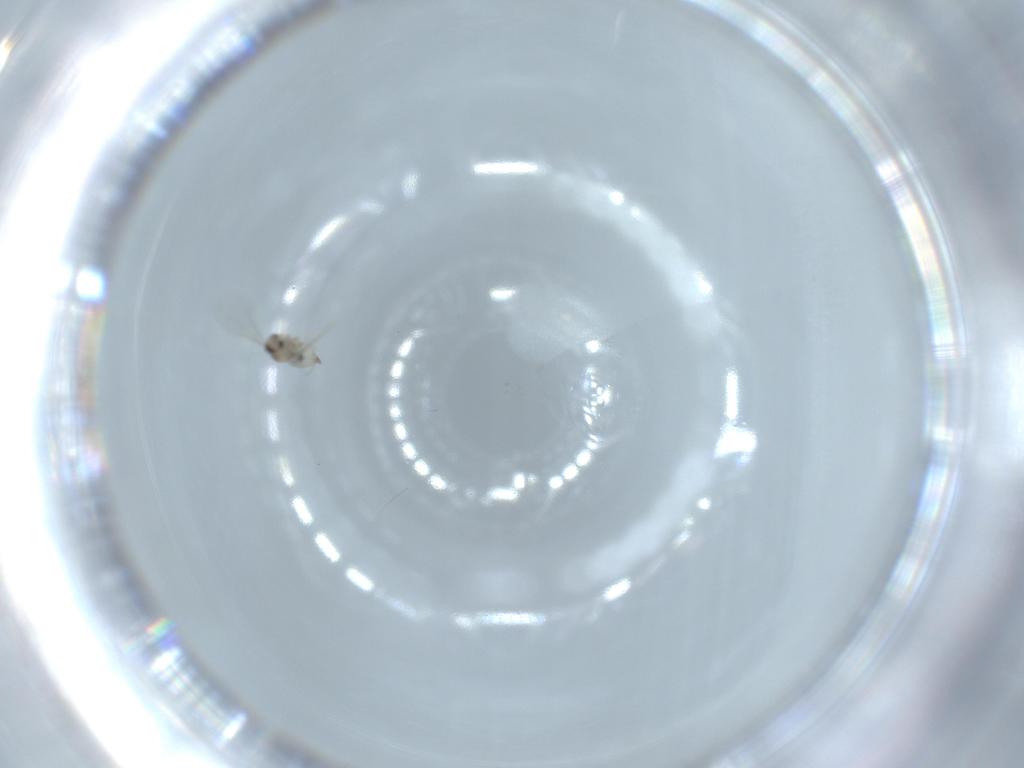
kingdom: Animalia
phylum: Arthropoda
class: Insecta
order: Diptera
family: Cecidomyiidae
